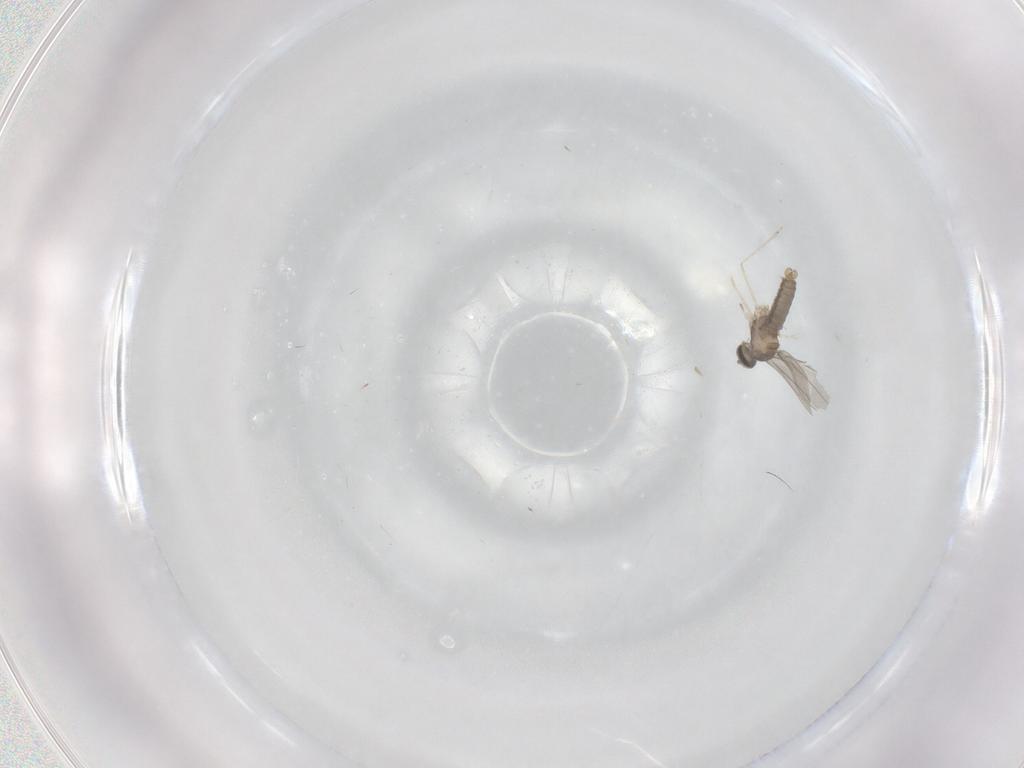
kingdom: Animalia
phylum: Arthropoda
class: Insecta
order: Diptera
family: Cecidomyiidae
